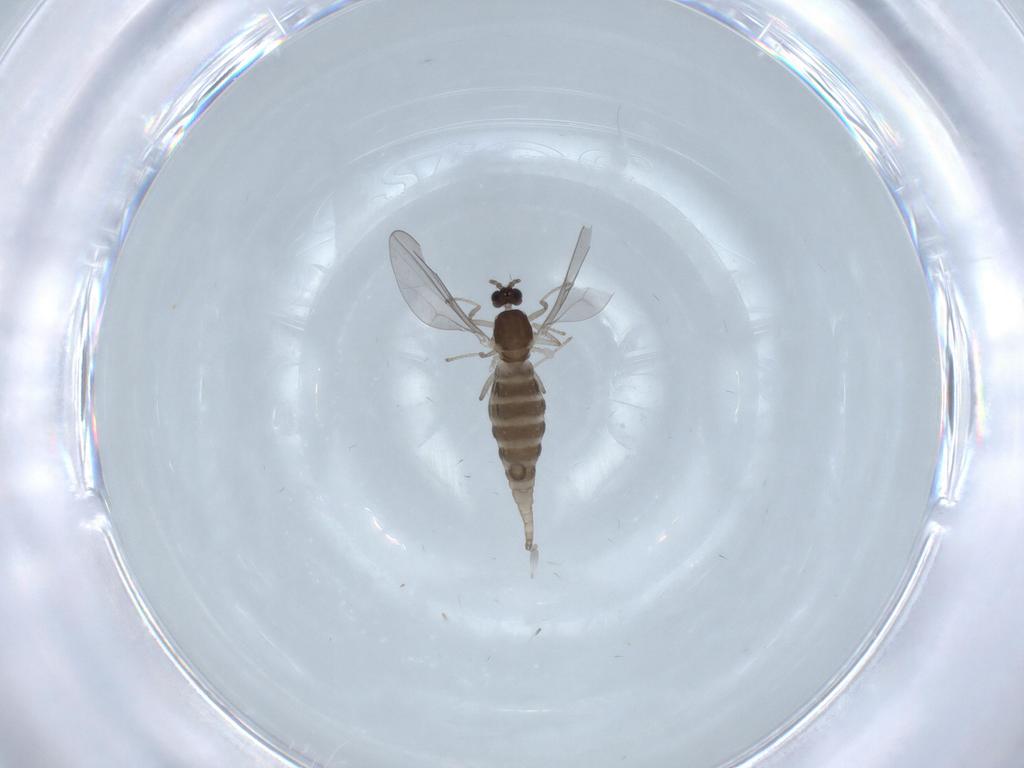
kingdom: Animalia
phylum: Arthropoda
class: Insecta
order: Diptera
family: Cecidomyiidae
